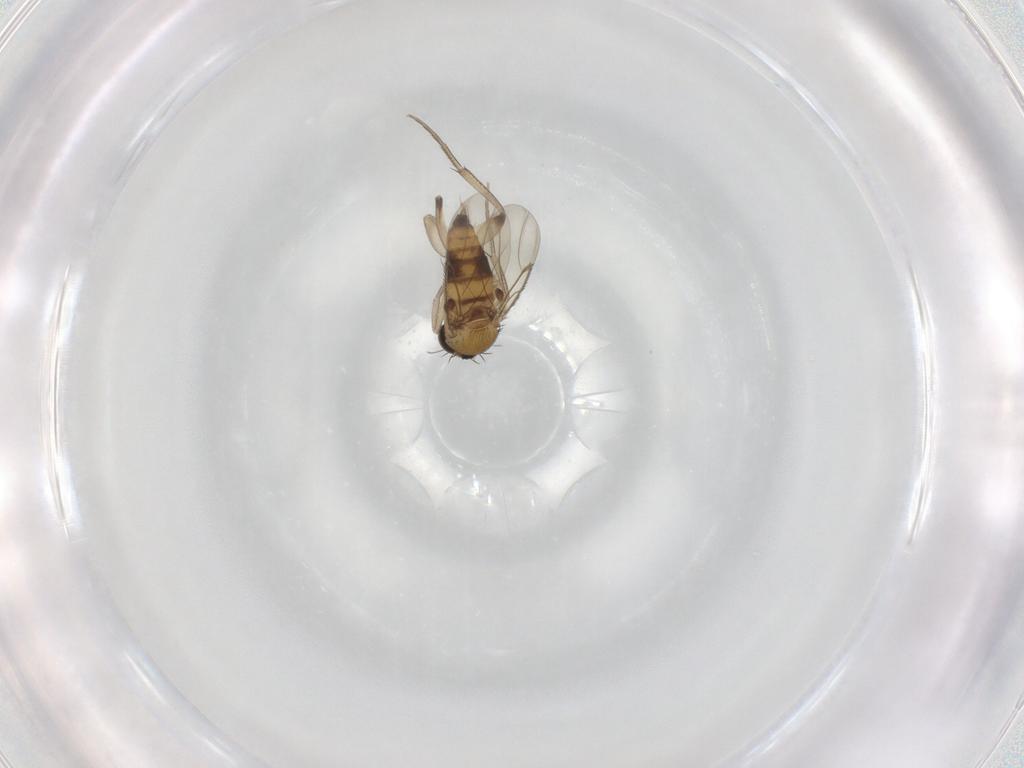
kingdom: Animalia
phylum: Arthropoda
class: Insecta
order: Diptera
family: Phoridae
